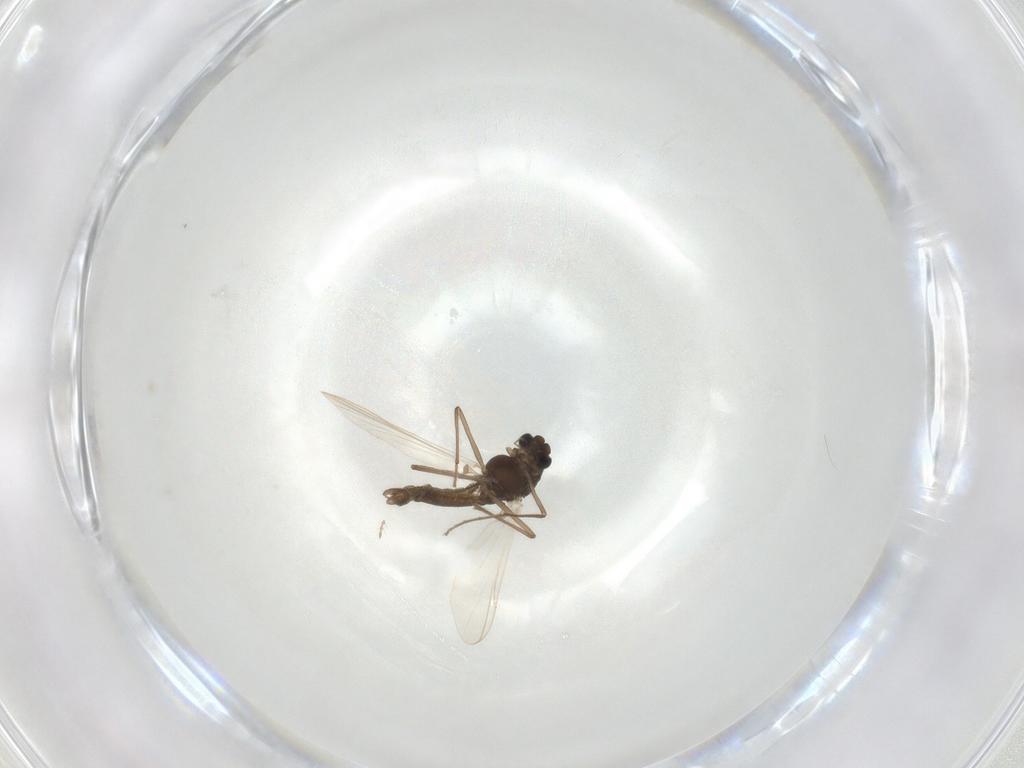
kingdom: Animalia
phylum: Arthropoda
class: Insecta
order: Diptera
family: Chironomidae
